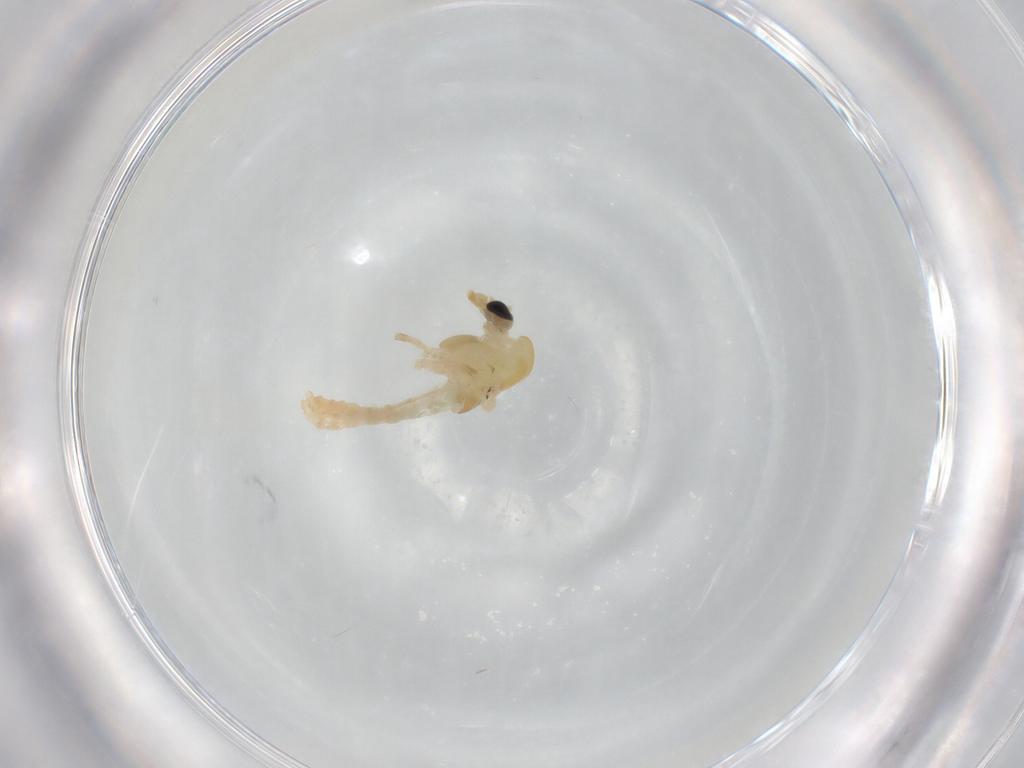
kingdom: Animalia
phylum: Arthropoda
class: Insecta
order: Diptera
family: Chironomidae
